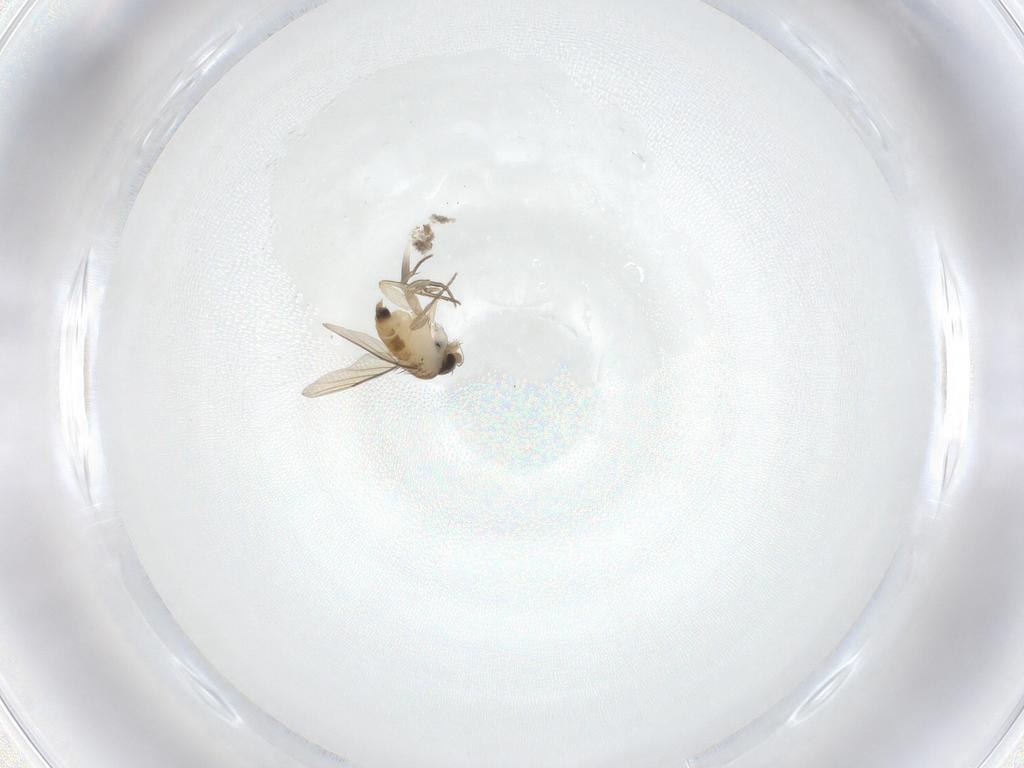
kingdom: Animalia
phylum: Arthropoda
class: Insecta
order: Diptera
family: Hybotidae
